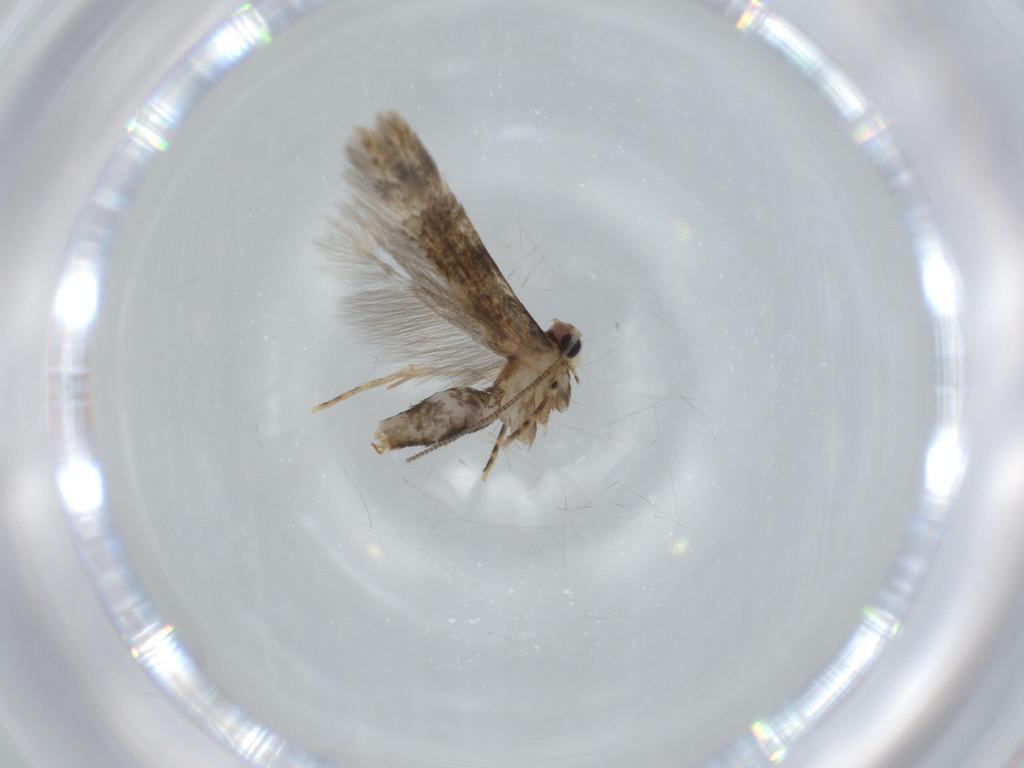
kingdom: Animalia
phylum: Arthropoda
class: Insecta
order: Lepidoptera
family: Tineidae
